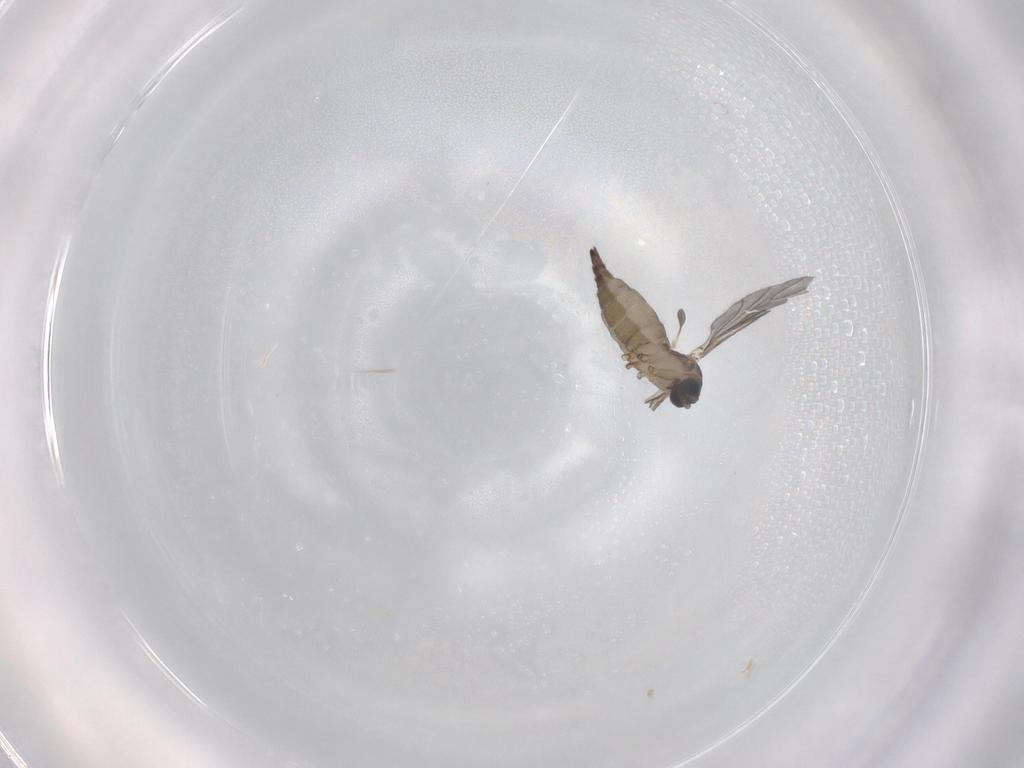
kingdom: Animalia
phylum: Arthropoda
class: Insecta
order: Diptera
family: Sciaridae
